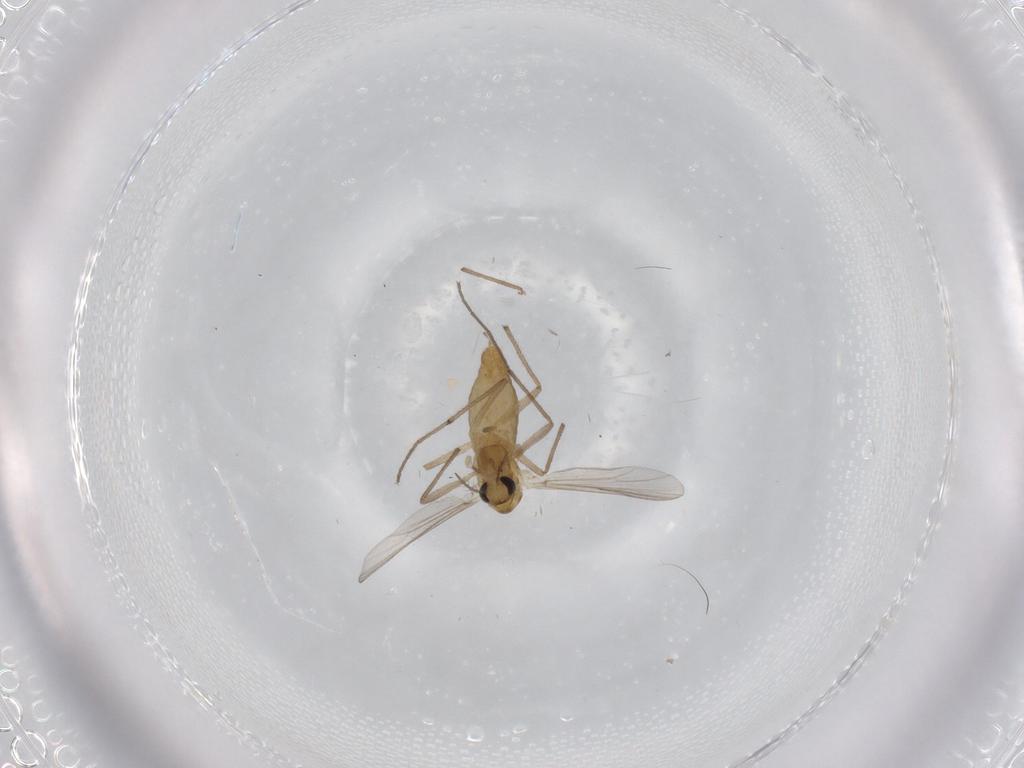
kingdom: Animalia
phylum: Arthropoda
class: Insecta
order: Diptera
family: Chironomidae
